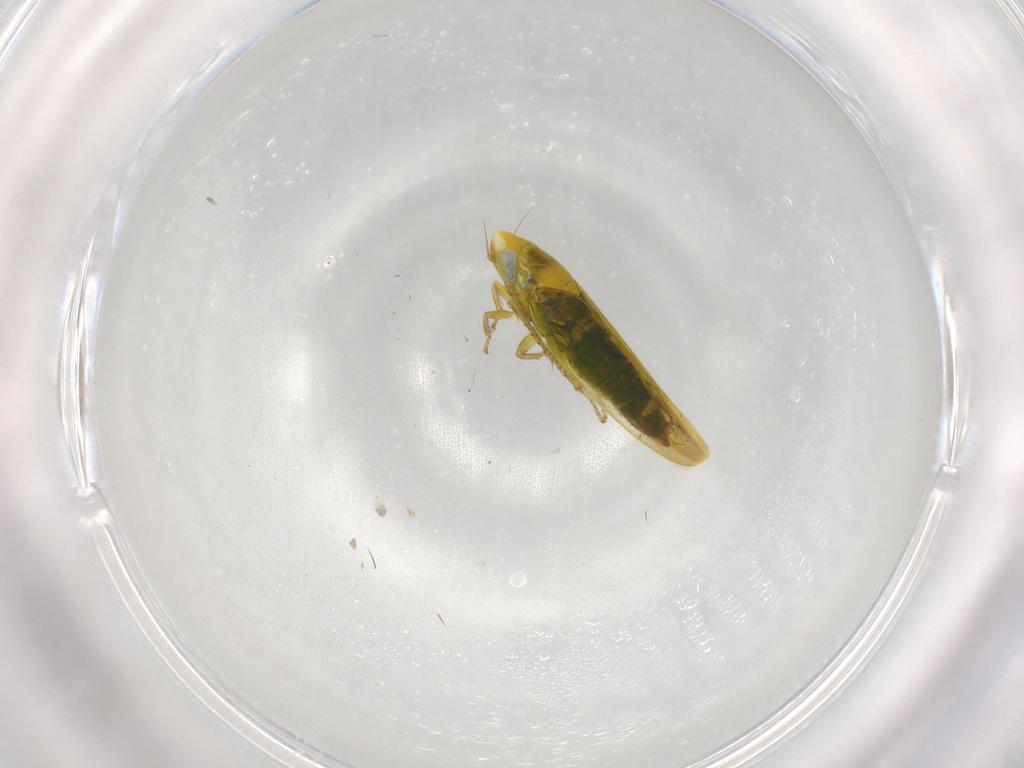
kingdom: Animalia
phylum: Arthropoda
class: Insecta
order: Hemiptera
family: Cicadellidae
